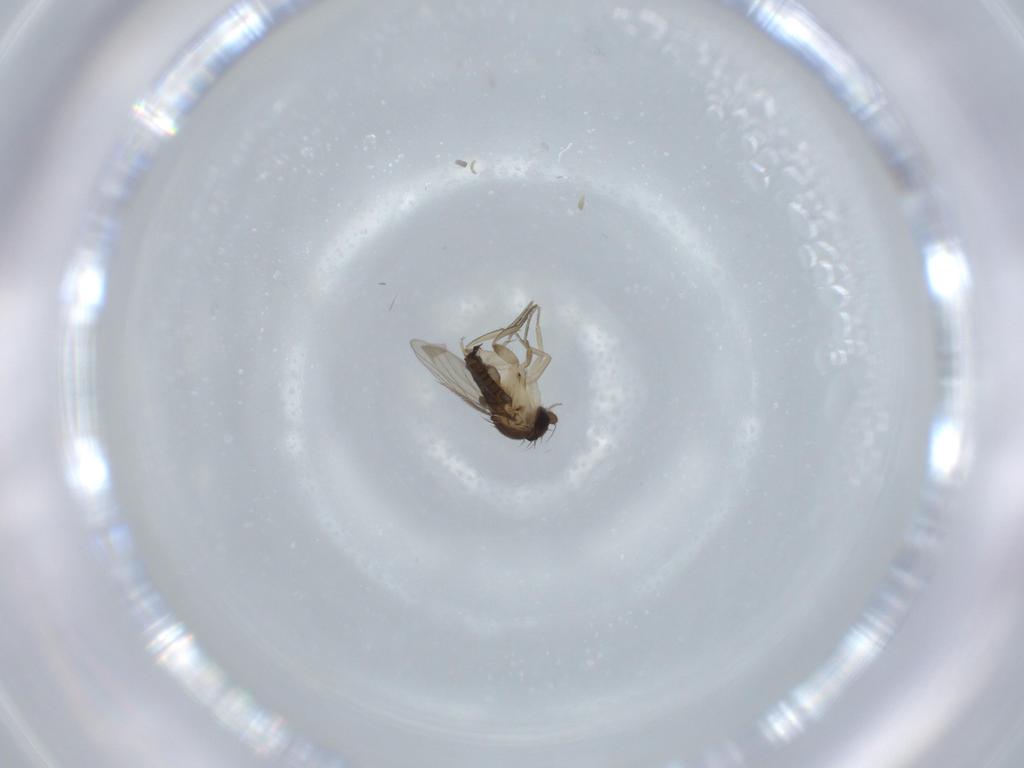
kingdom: Animalia
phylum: Arthropoda
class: Insecta
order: Diptera
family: Phoridae
